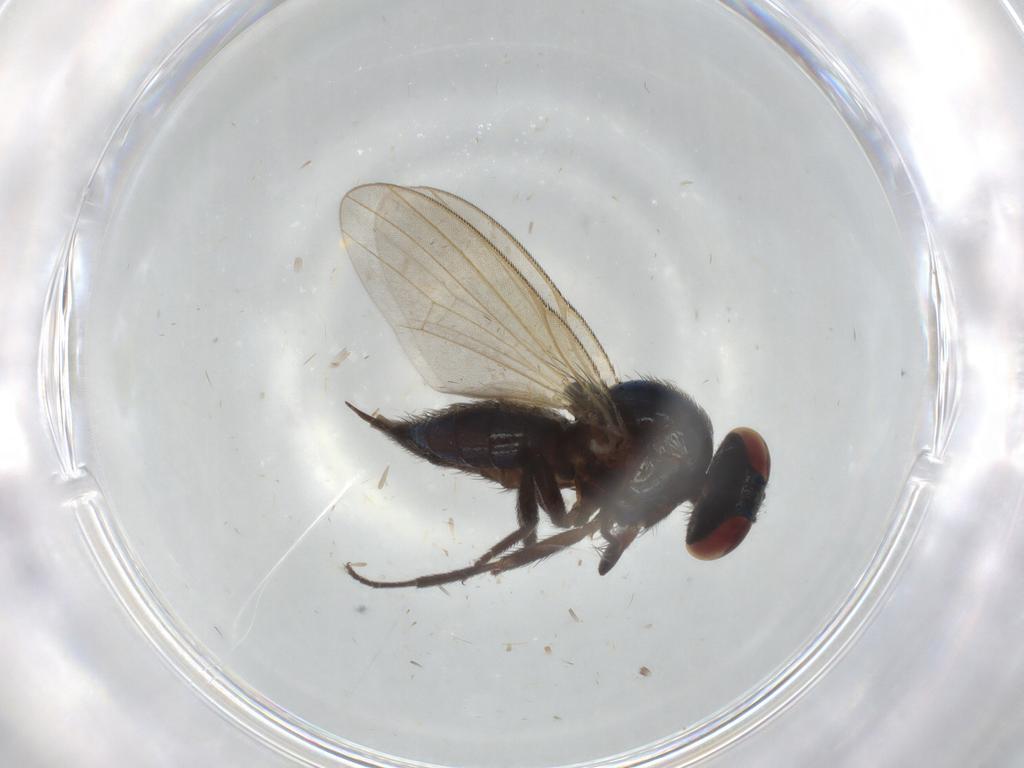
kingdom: Animalia
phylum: Arthropoda
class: Insecta
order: Diptera
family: Lonchaeidae
